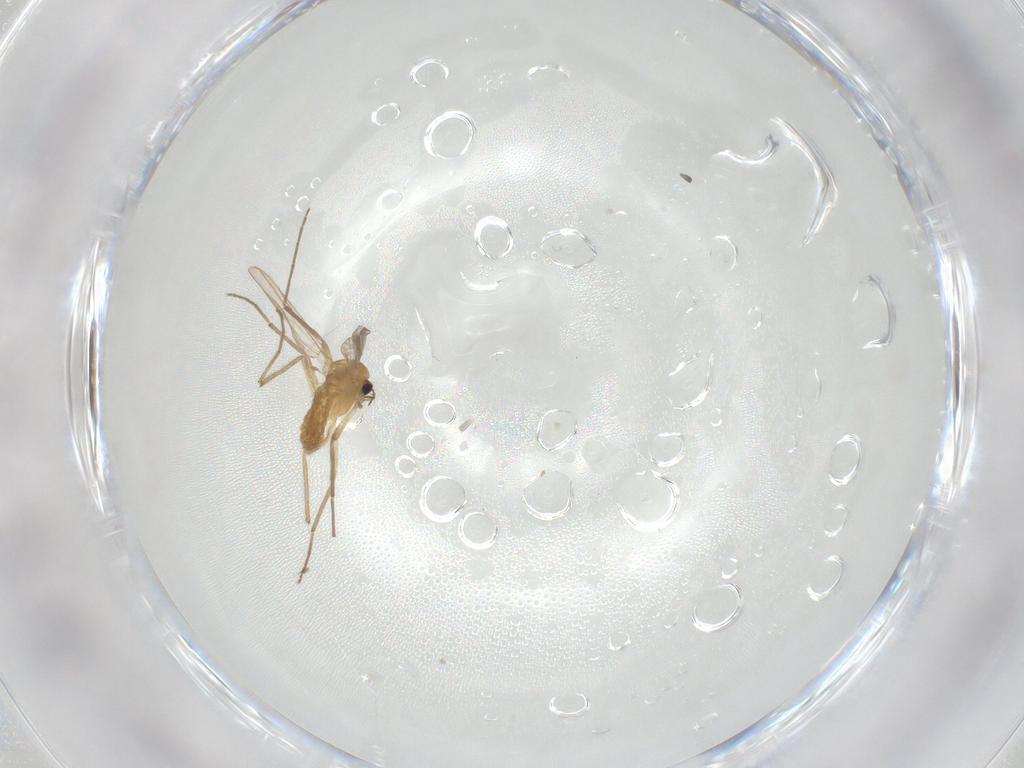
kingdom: Animalia
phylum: Arthropoda
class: Insecta
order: Diptera
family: Chironomidae
